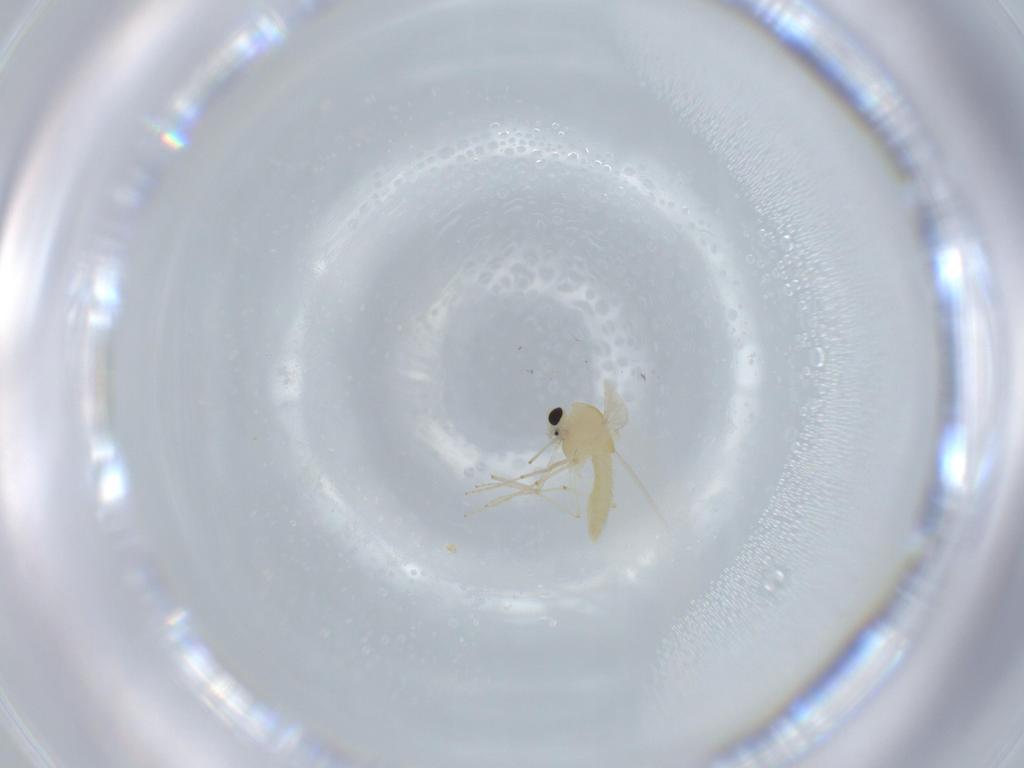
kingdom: Animalia
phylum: Arthropoda
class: Insecta
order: Diptera
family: Chironomidae
